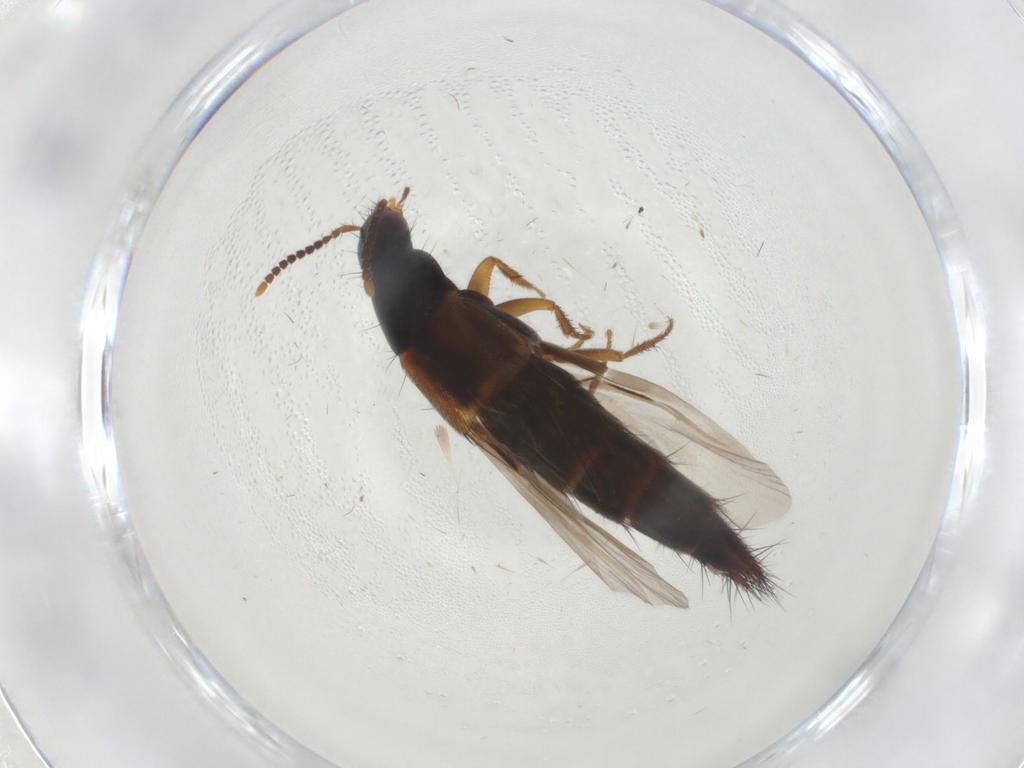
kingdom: Animalia
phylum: Arthropoda
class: Insecta
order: Coleoptera
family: Staphylinidae
